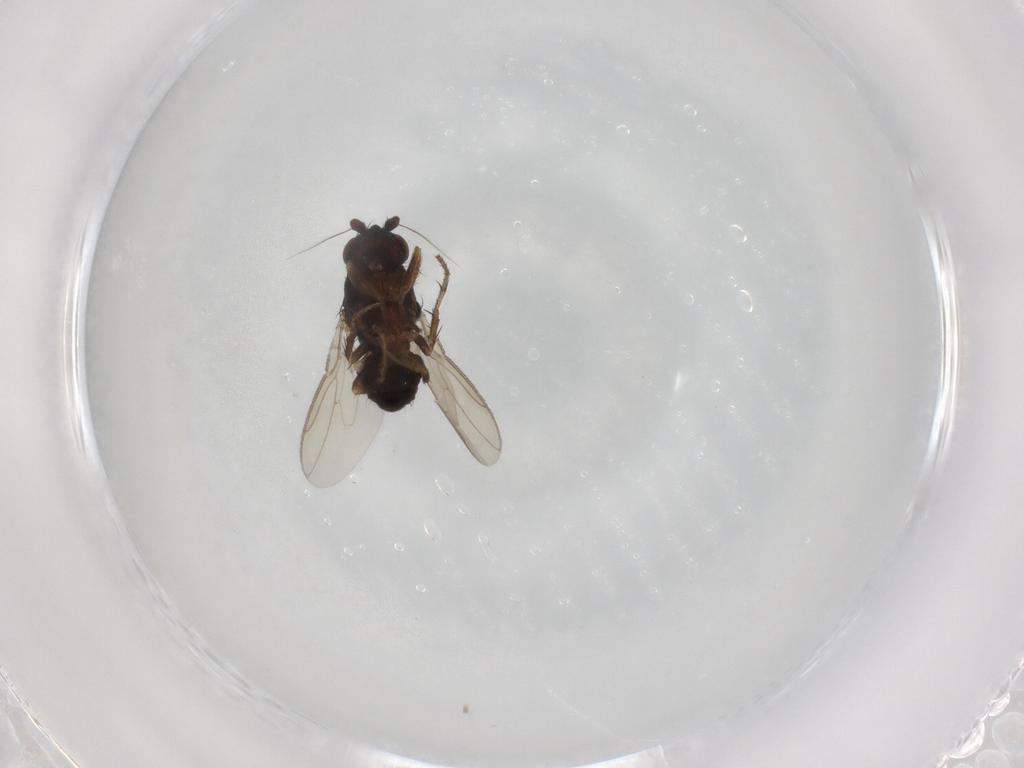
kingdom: Animalia
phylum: Arthropoda
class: Insecta
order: Diptera
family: Sphaeroceridae
